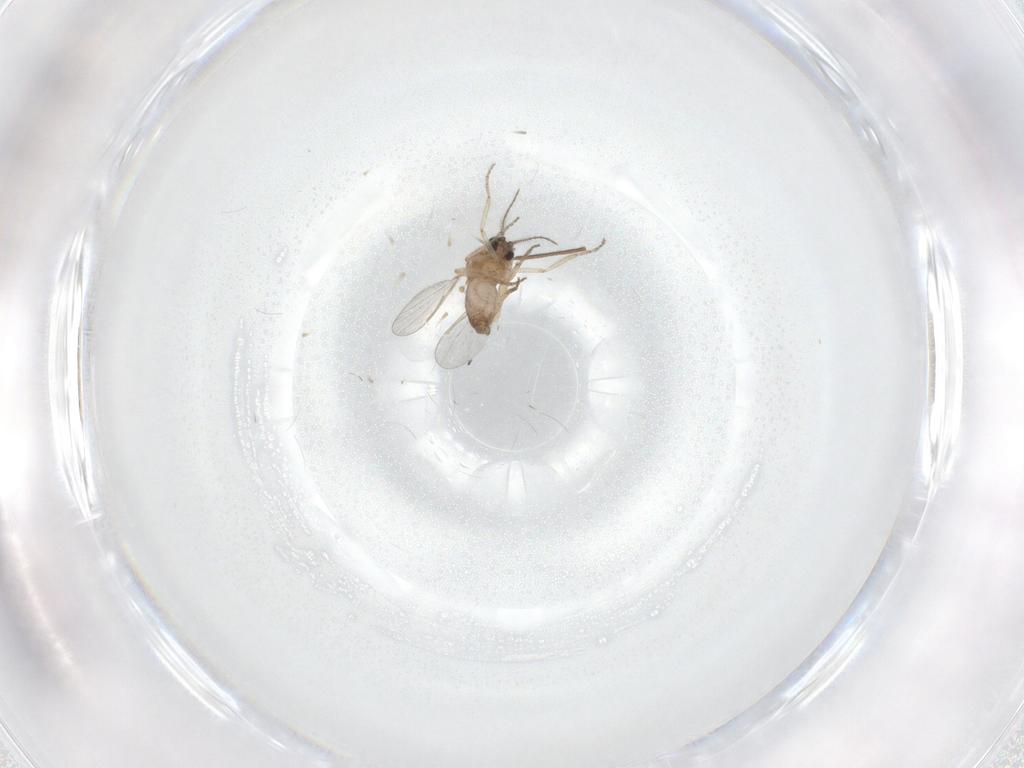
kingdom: Animalia
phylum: Arthropoda
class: Insecta
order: Diptera
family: Chironomidae
